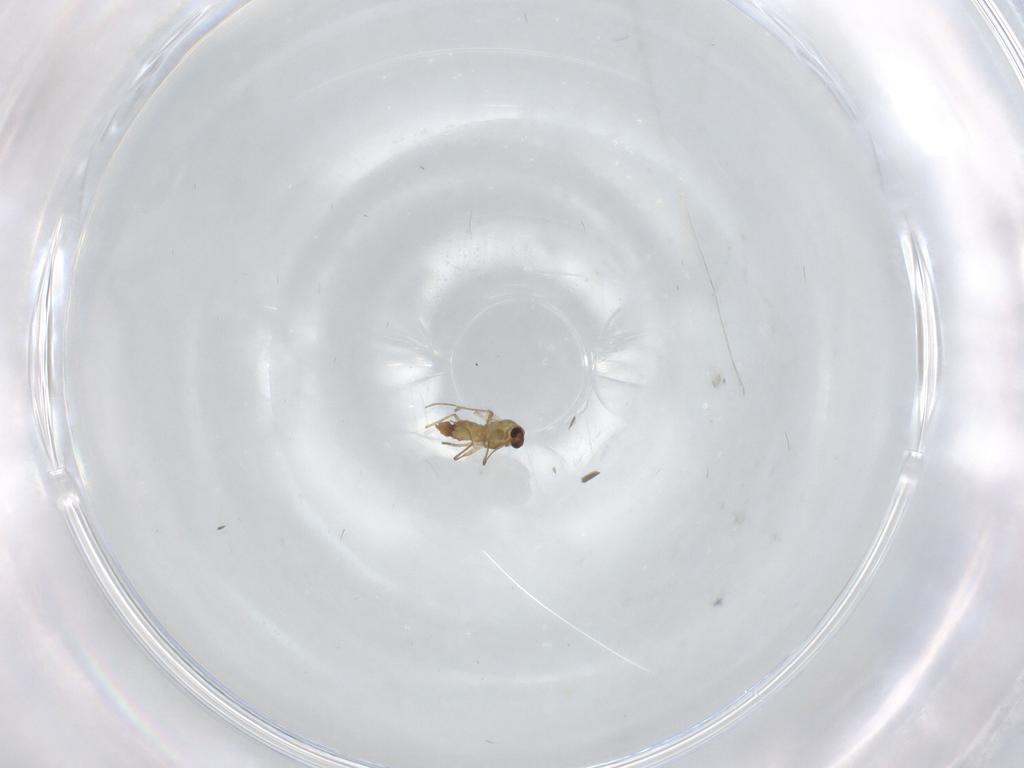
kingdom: Animalia
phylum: Arthropoda
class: Insecta
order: Diptera
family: Chironomidae
